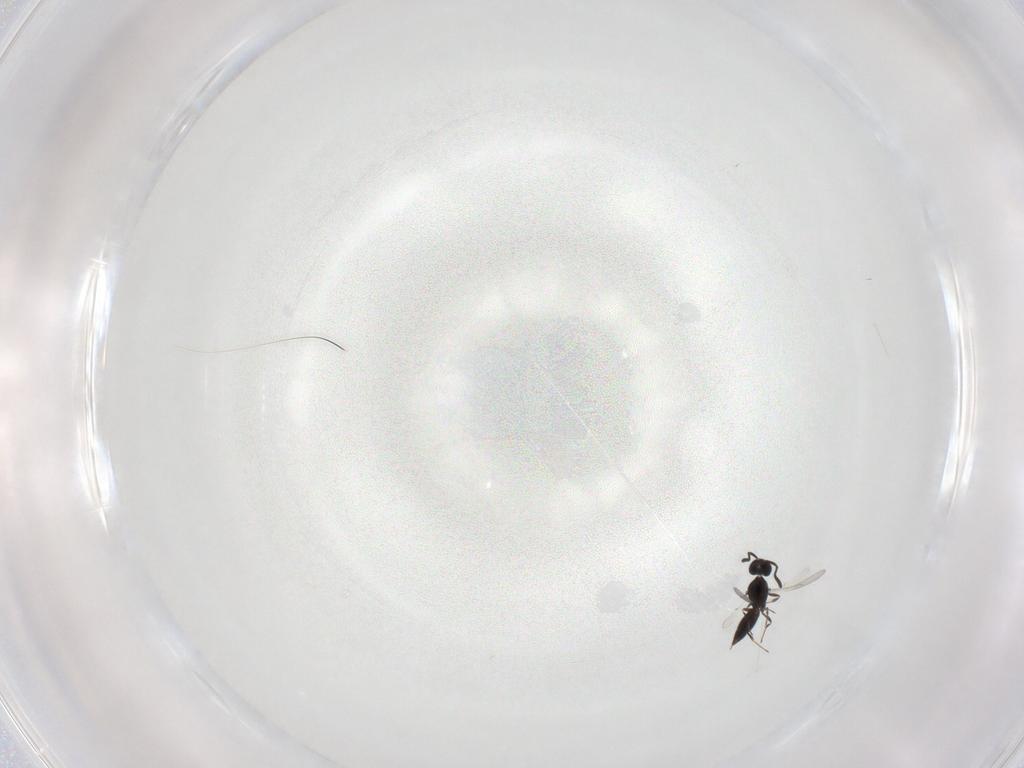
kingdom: Animalia
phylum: Arthropoda
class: Insecta
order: Hymenoptera
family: Scelionidae
